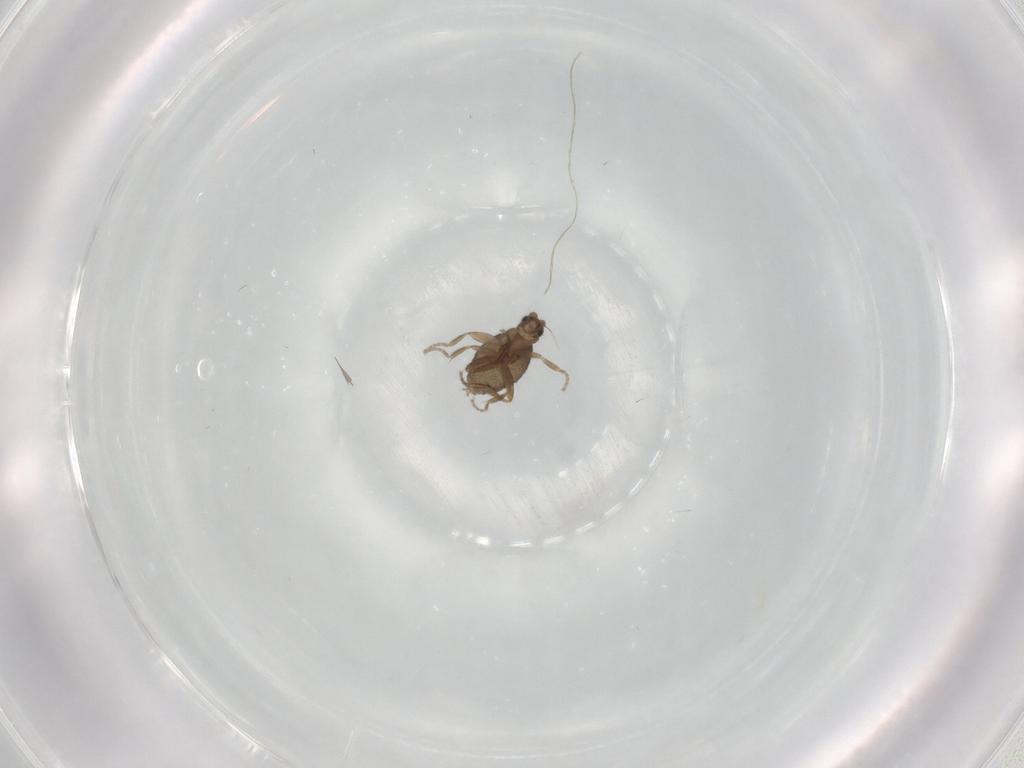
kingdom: Animalia
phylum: Arthropoda
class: Insecta
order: Diptera
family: Phoridae
